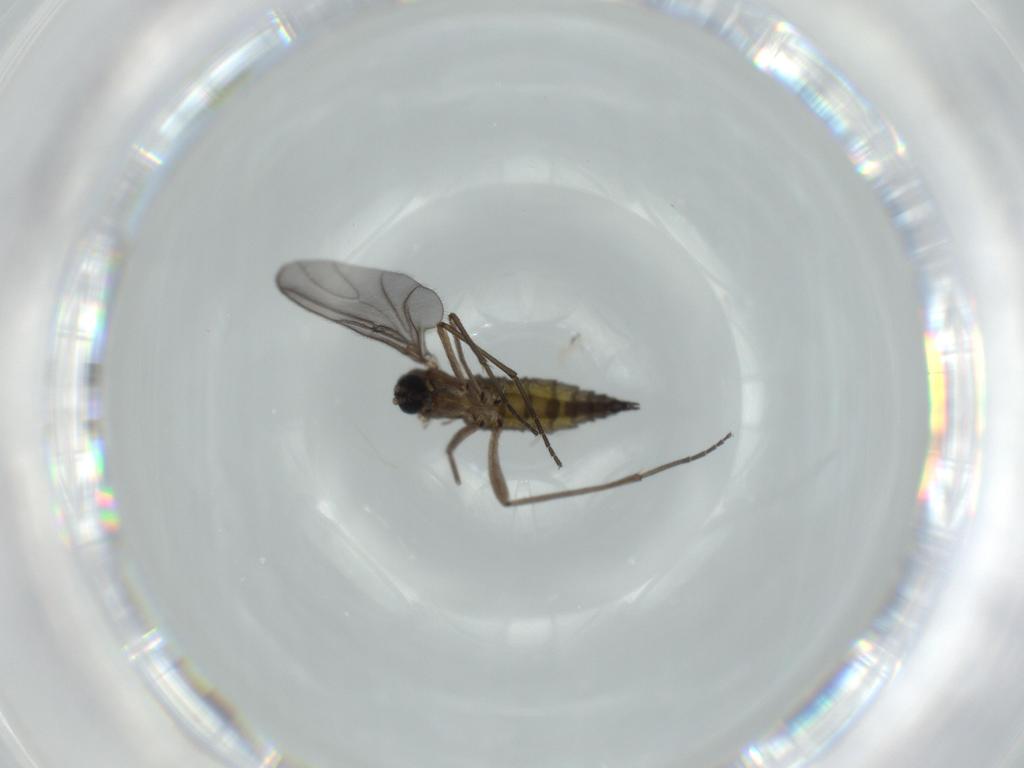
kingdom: Animalia
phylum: Arthropoda
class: Insecta
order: Diptera
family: Sciaridae
